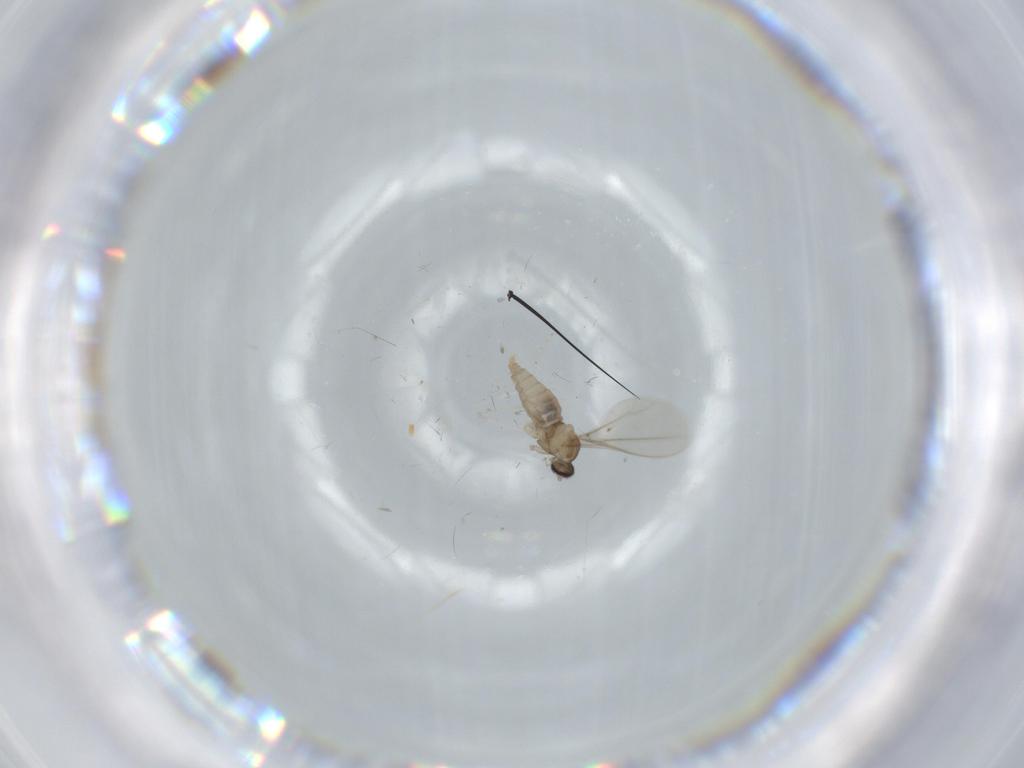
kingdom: Animalia
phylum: Arthropoda
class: Insecta
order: Diptera
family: Cecidomyiidae
